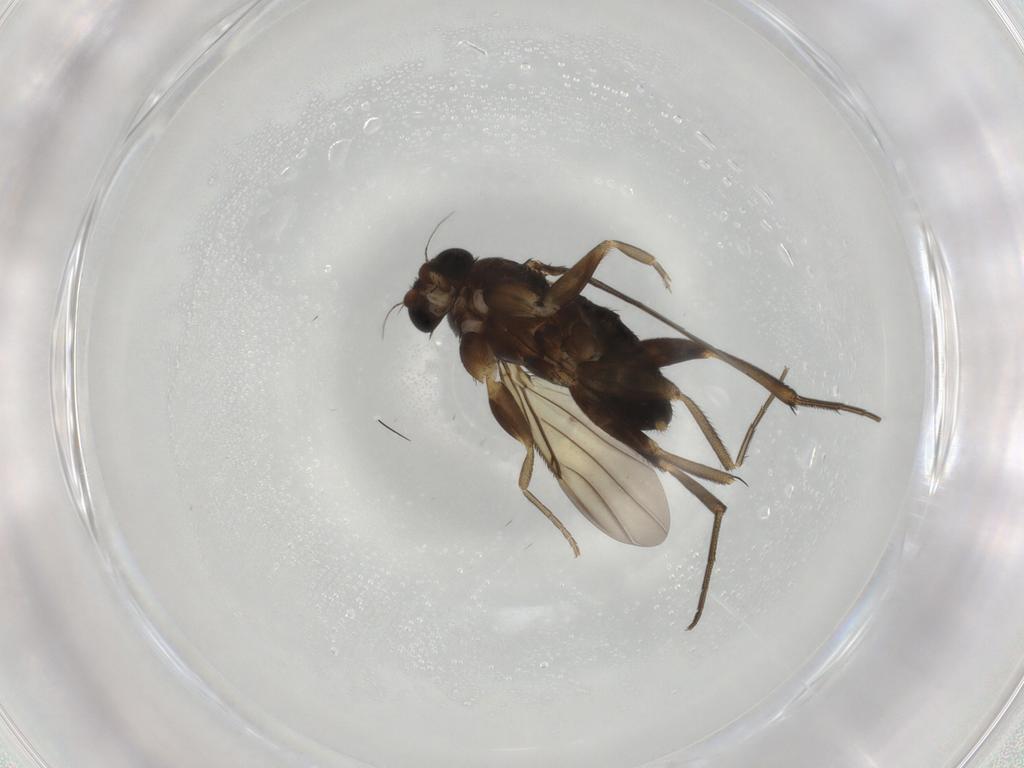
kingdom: Animalia
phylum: Arthropoda
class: Insecta
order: Diptera
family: Phoridae
